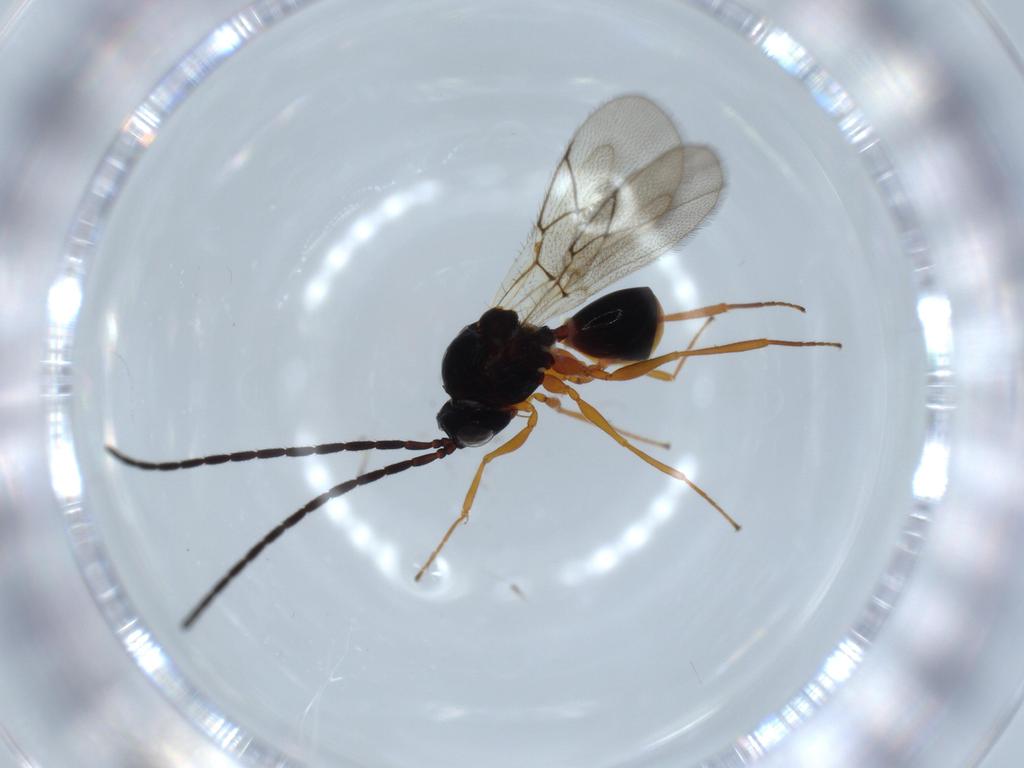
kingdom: Animalia
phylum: Arthropoda
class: Insecta
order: Hymenoptera
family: Figitidae
